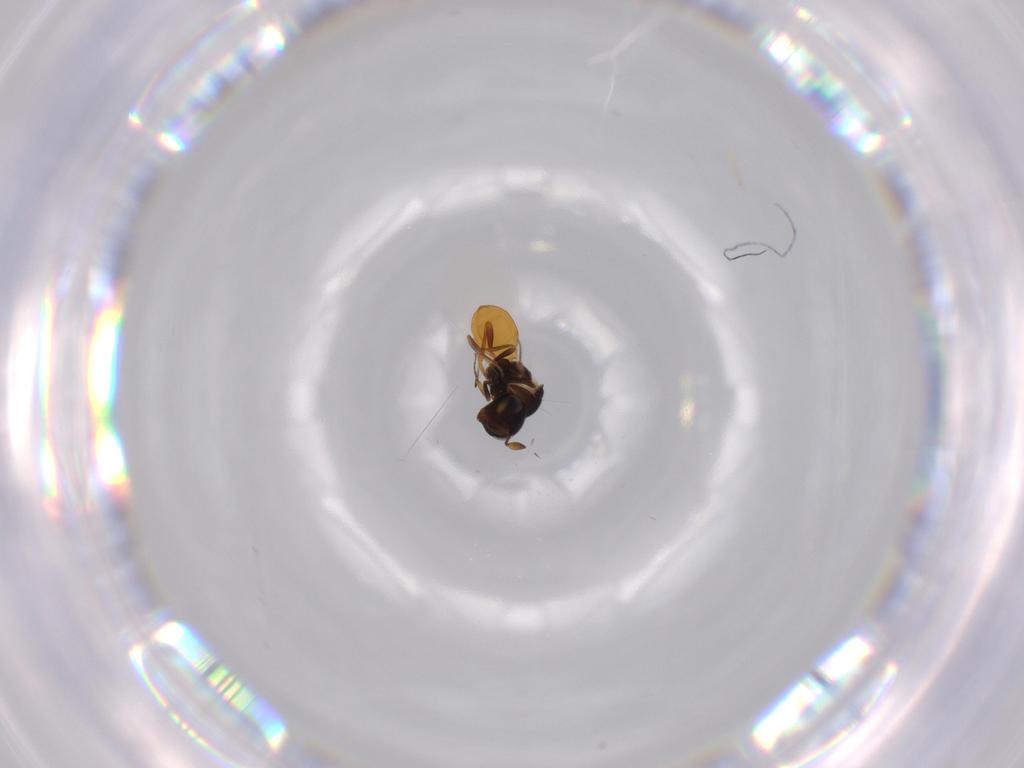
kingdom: Animalia
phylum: Arthropoda
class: Insecta
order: Hymenoptera
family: Scelionidae
